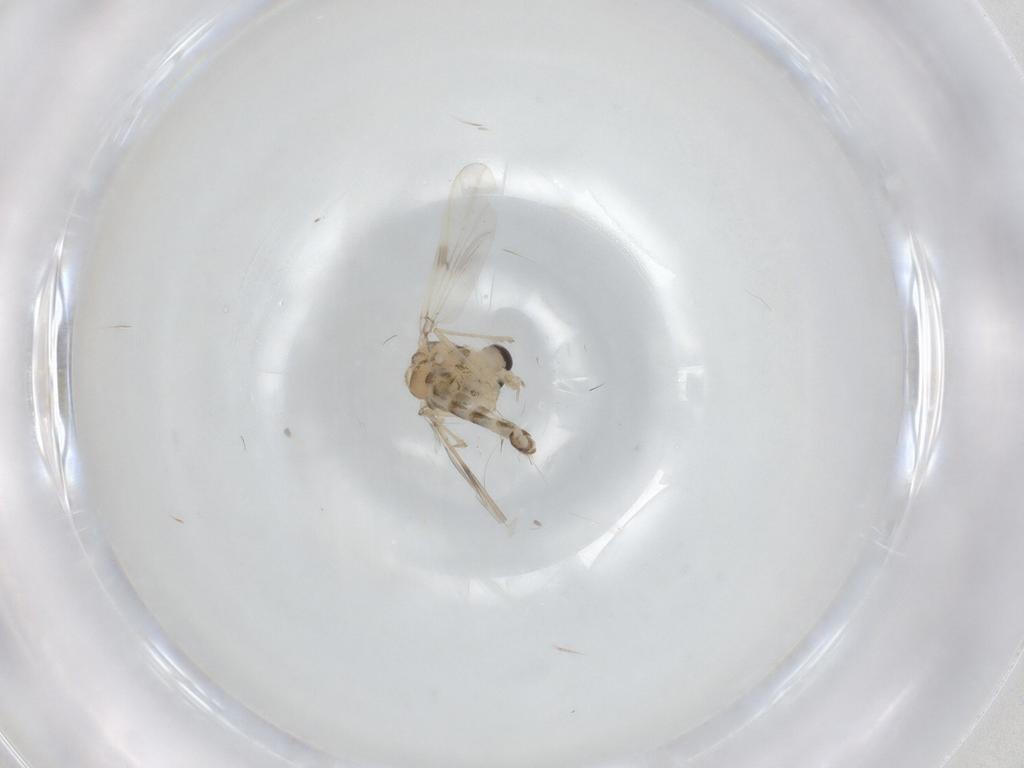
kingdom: Animalia
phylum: Arthropoda
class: Insecta
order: Diptera
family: Chironomidae
